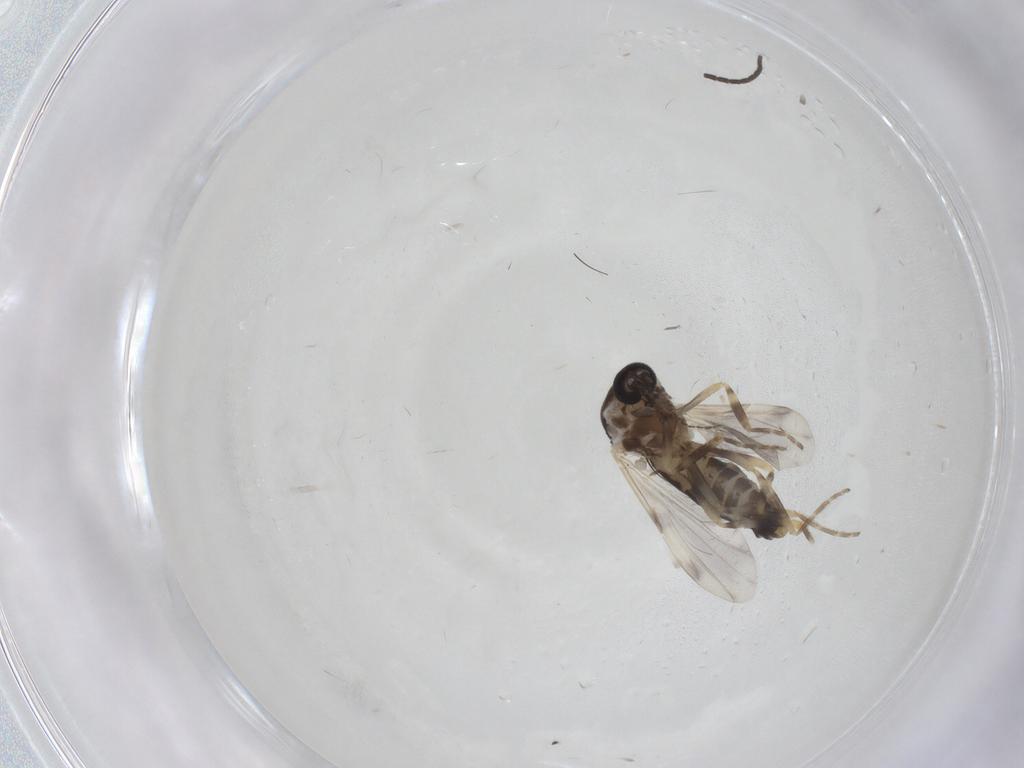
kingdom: Animalia
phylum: Arthropoda
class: Insecta
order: Diptera
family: Ceratopogonidae
